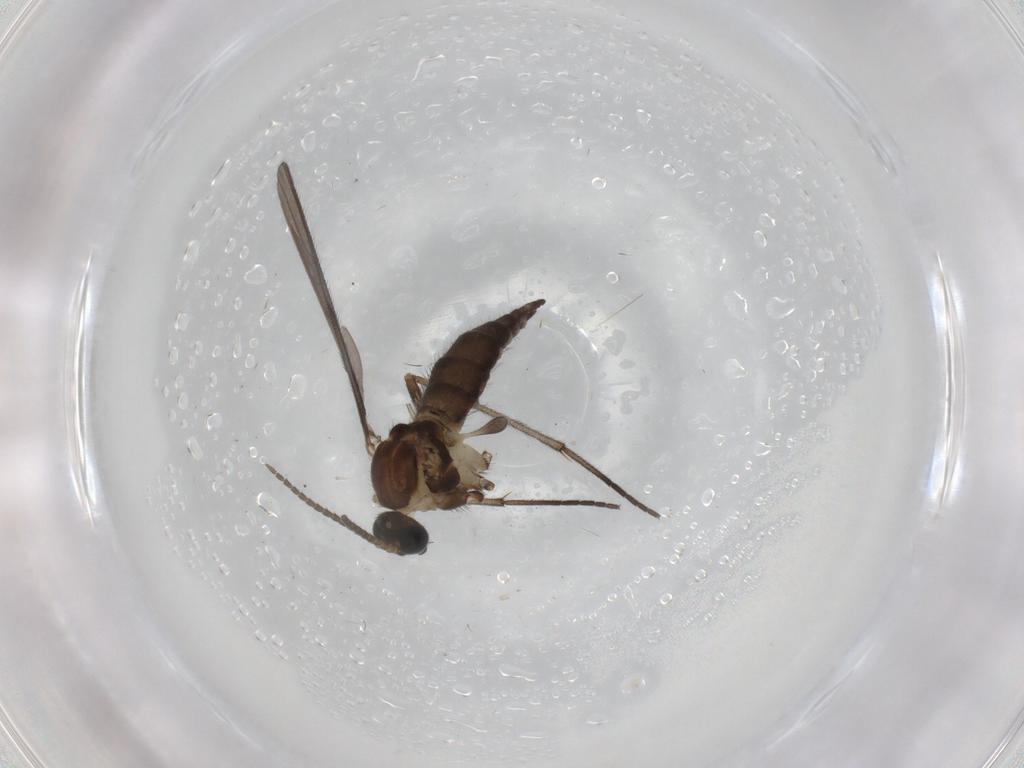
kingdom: Animalia
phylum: Arthropoda
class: Insecta
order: Diptera
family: Sciaridae
